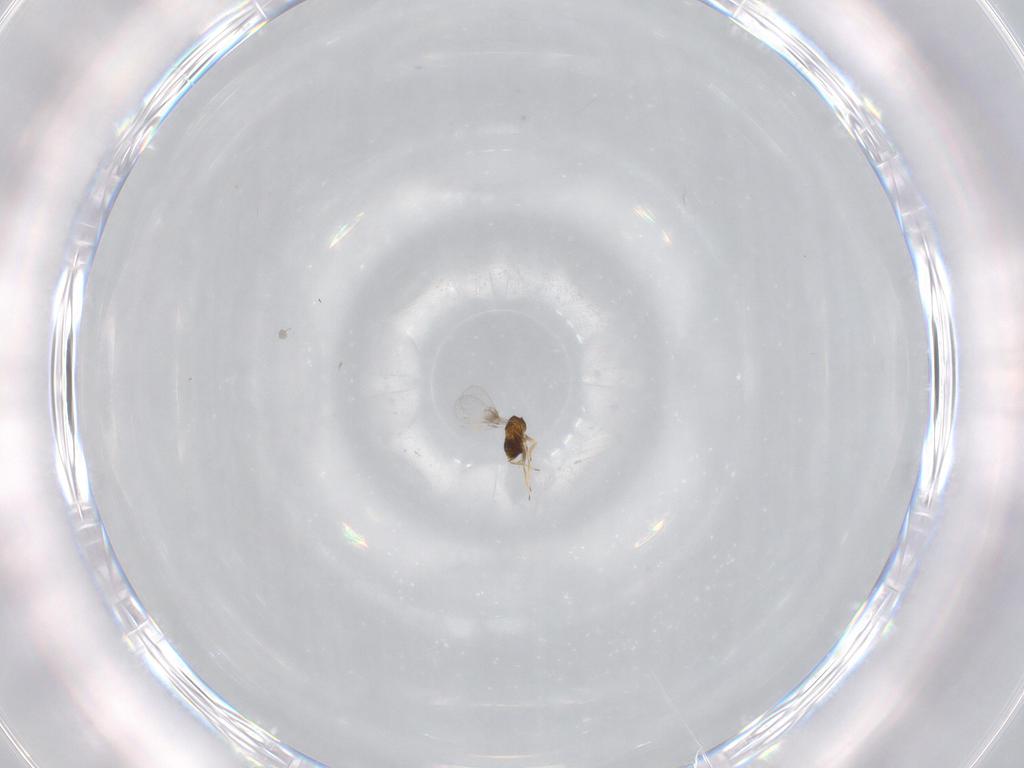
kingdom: Animalia
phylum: Arthropoda
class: Insecta
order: Hymenoptera
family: Trichogrammatidae
